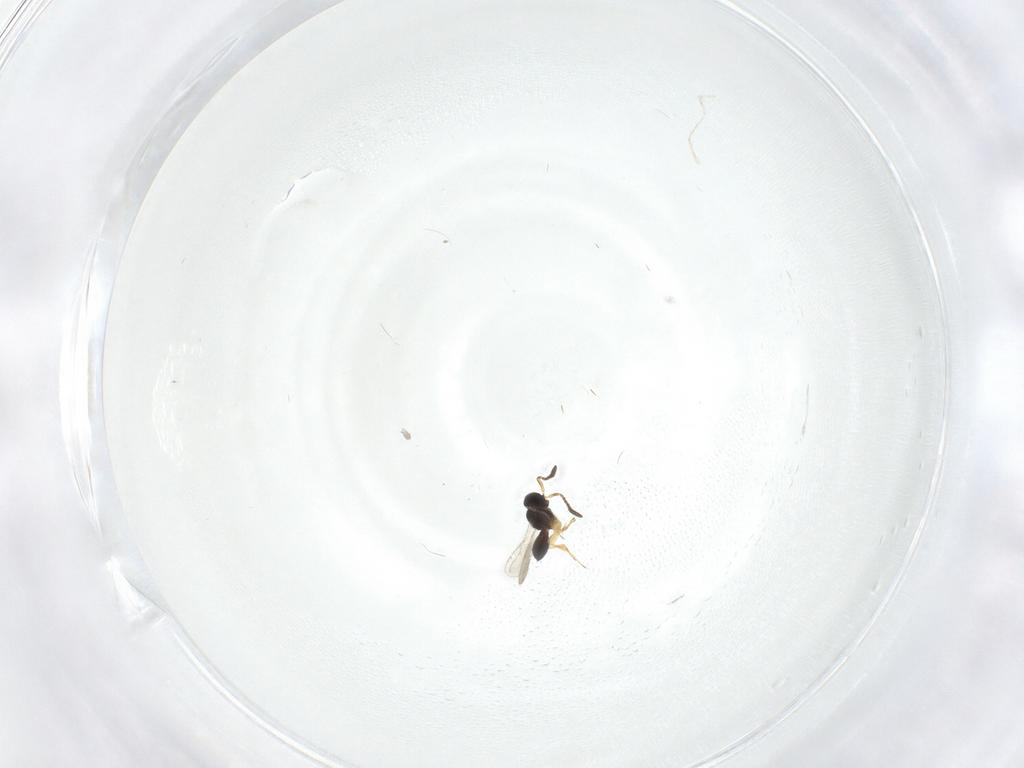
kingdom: Animalia
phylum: Arthropoda
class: Insecta
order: Hymenoptera
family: Scelionidae
